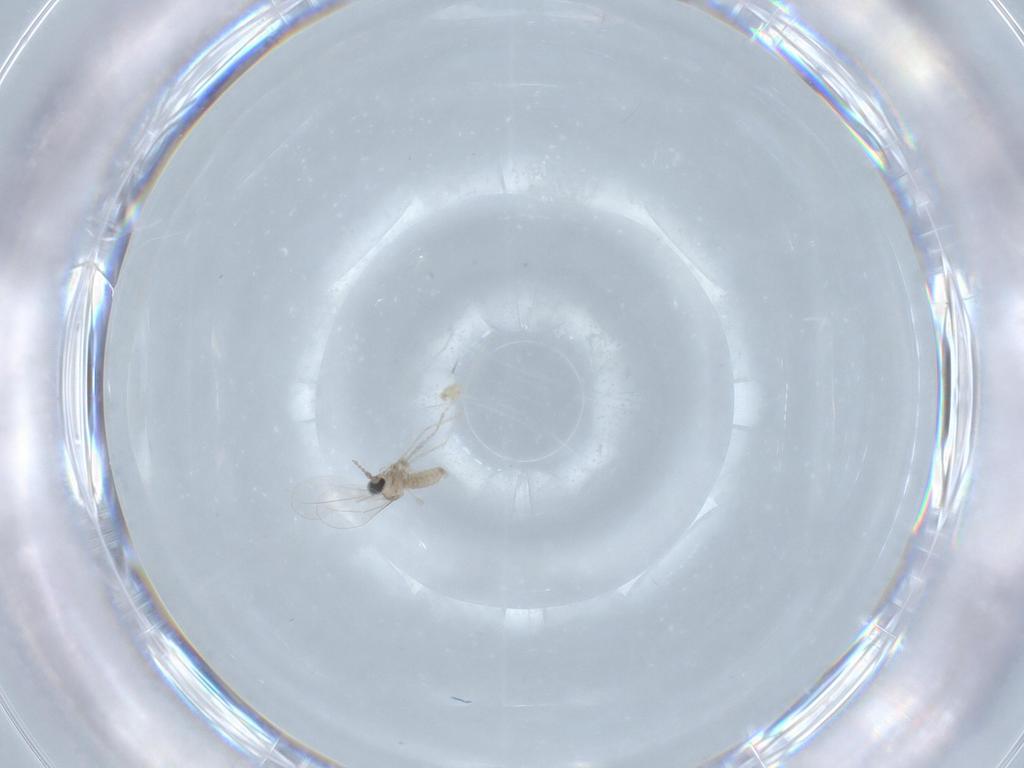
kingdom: Animalia
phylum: Arthropoda
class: Insecta
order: Diptera
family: Cecidomyiidae
